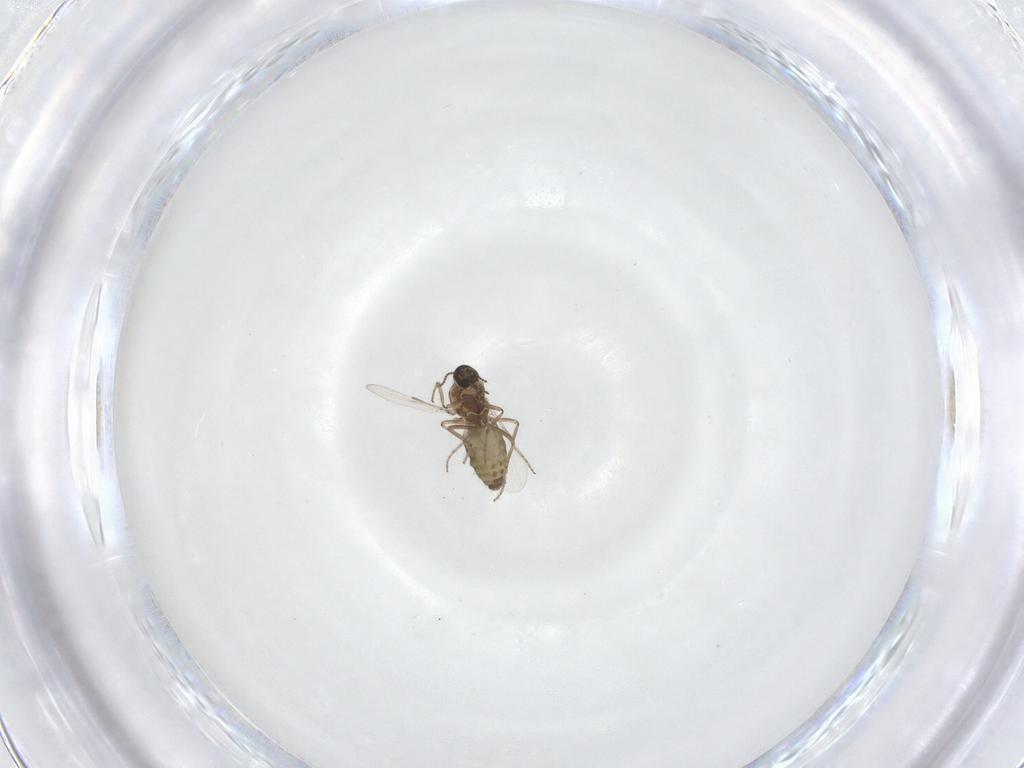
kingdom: Animalia
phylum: Arthropoda
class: Insecta
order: Diptera
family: Ceratopogonidae
